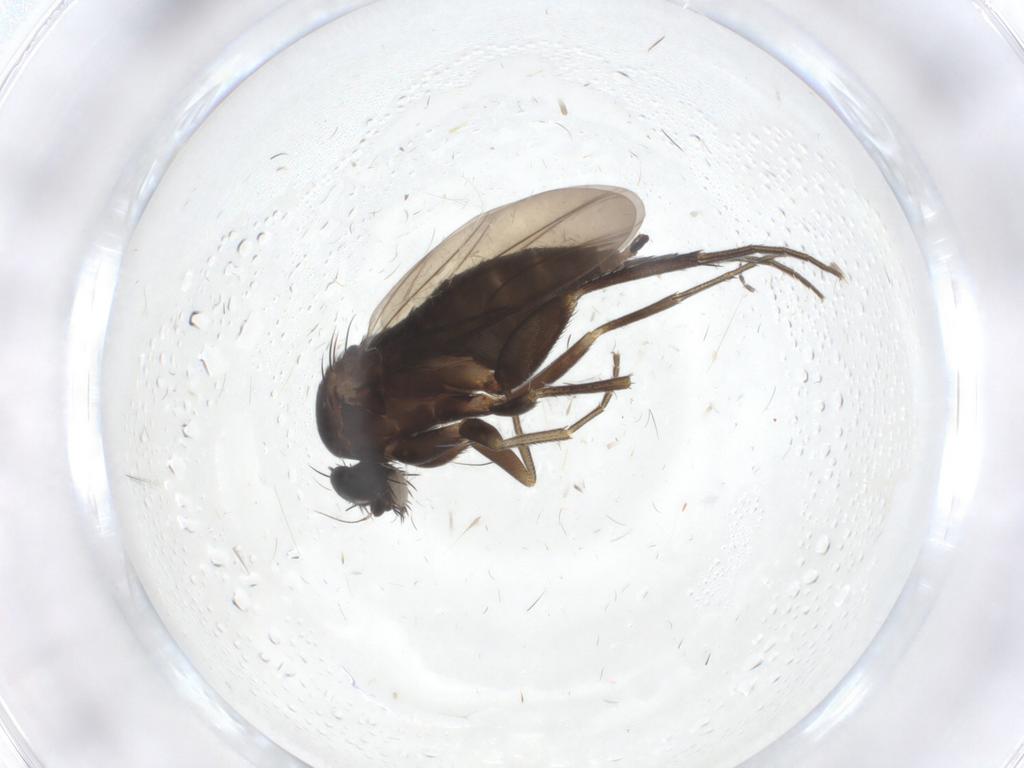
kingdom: Animalia
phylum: Arthropoda
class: Insecta
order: Diptera
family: Phoridae
